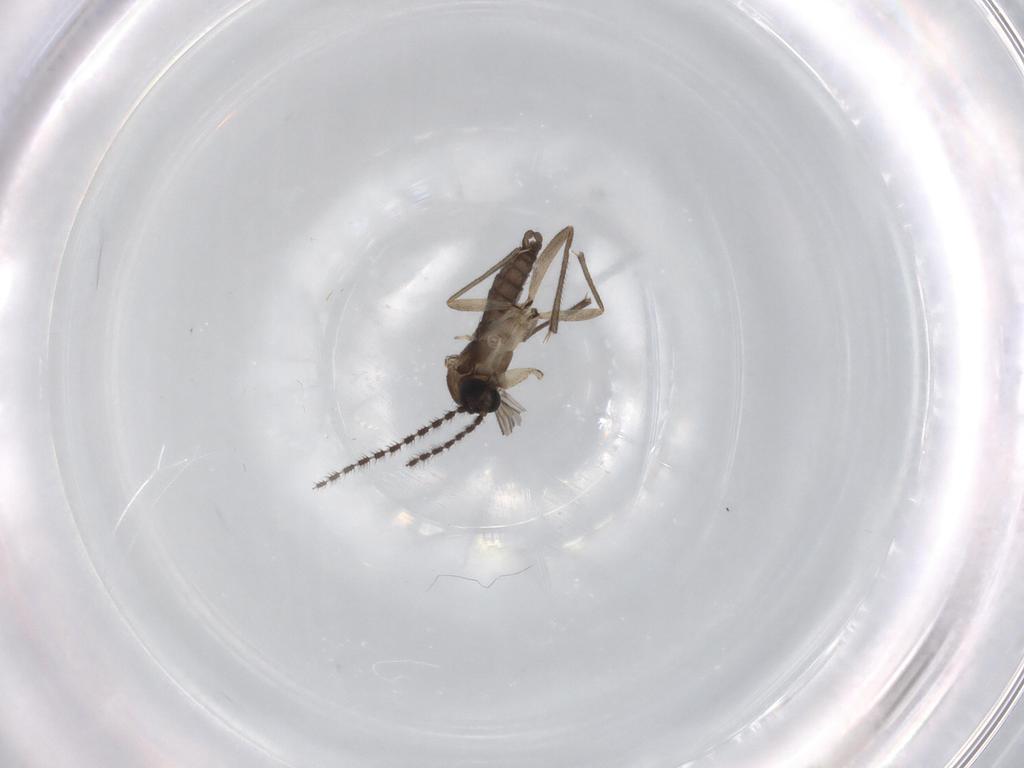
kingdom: Animalia
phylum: Arthropoda
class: Insecta
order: Diptera
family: Sciaridae
